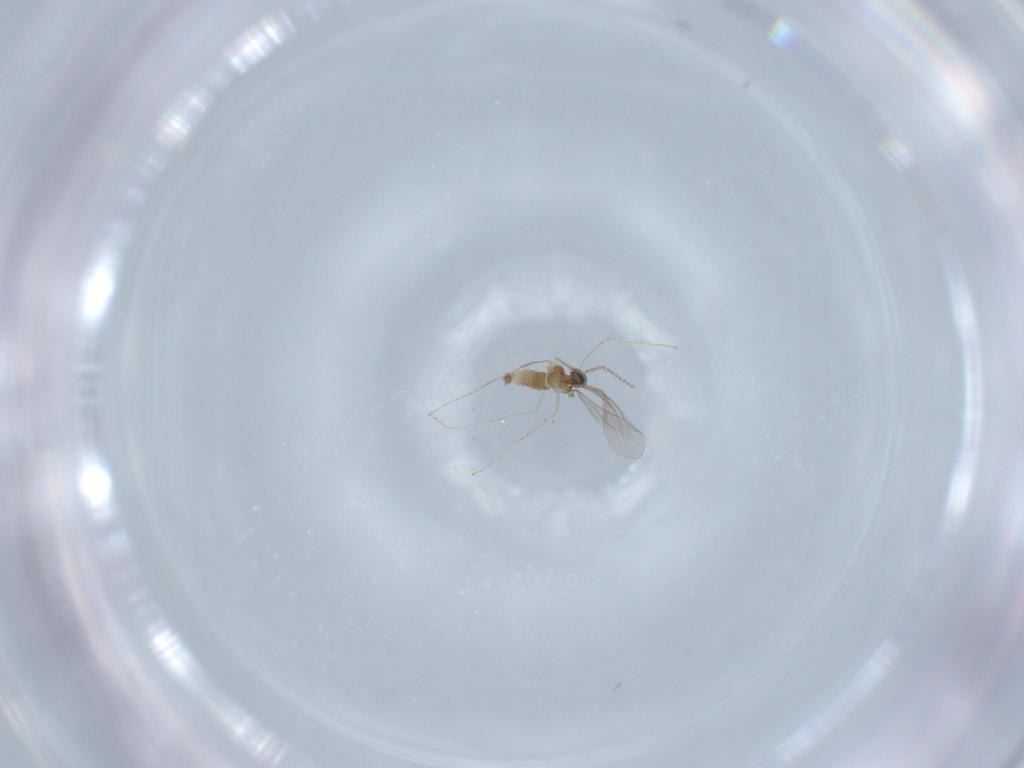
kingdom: Animalia
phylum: Arthropoda
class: Insecta
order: Diptera
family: Cecidomyiidae
